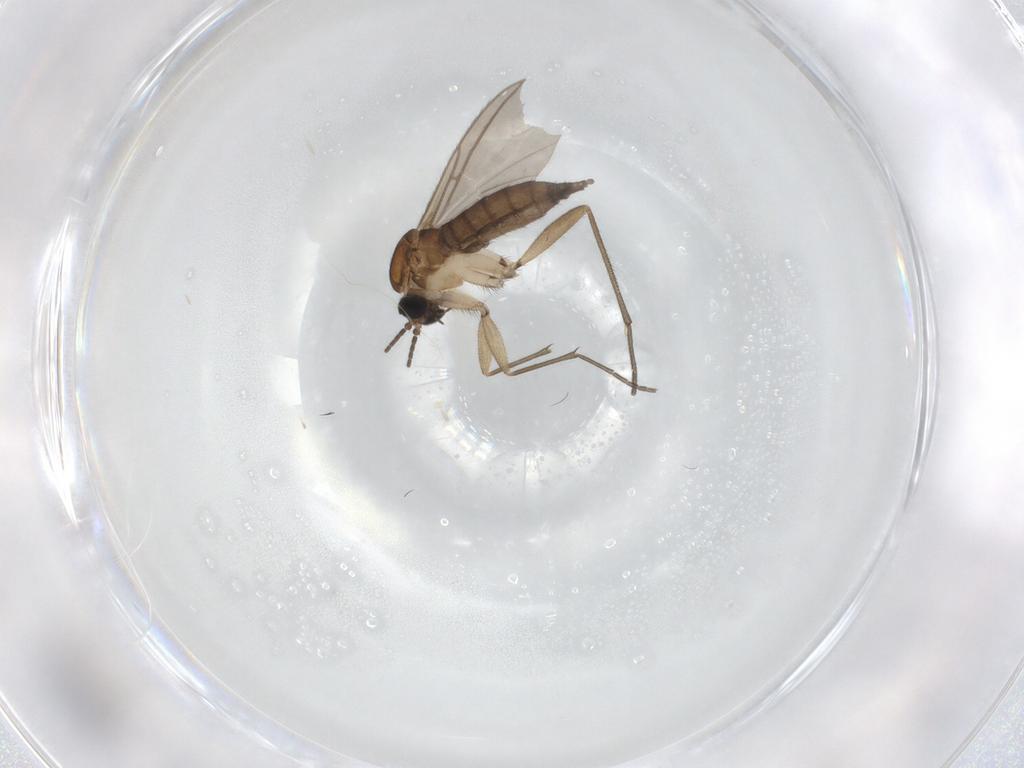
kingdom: Animalia
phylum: Arthropoda
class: Insecta
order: Diptera
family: Sciaridae
